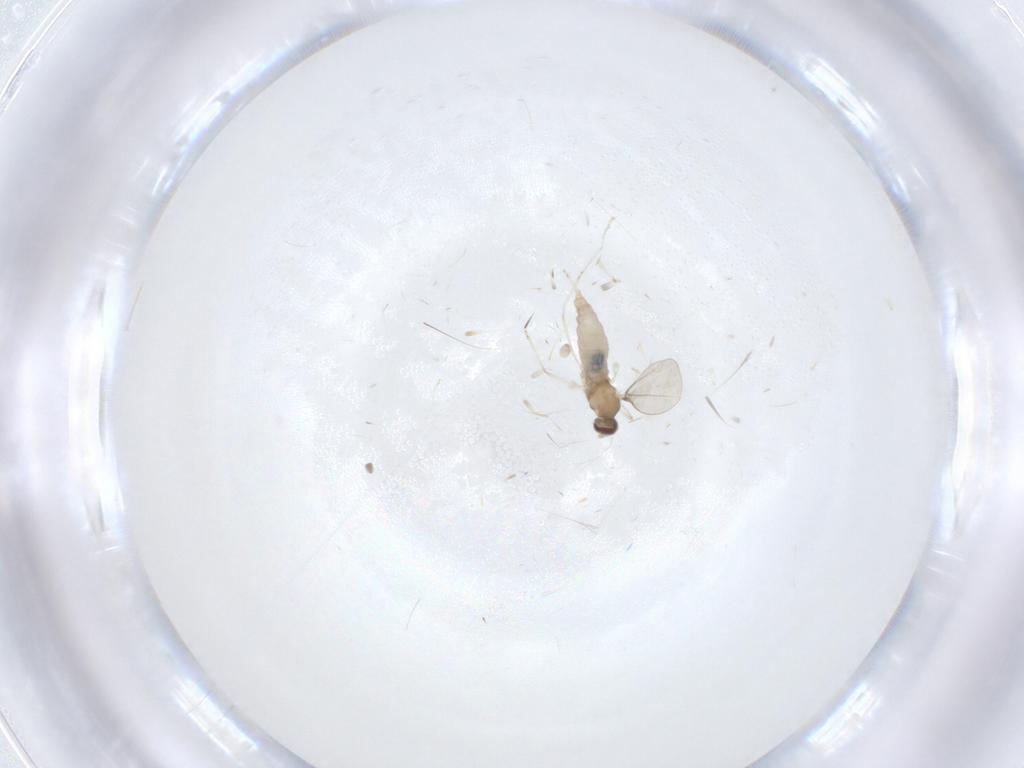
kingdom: Animalia
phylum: Arthropoda
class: Insecta
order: Diptera
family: Cecidomyiidae
